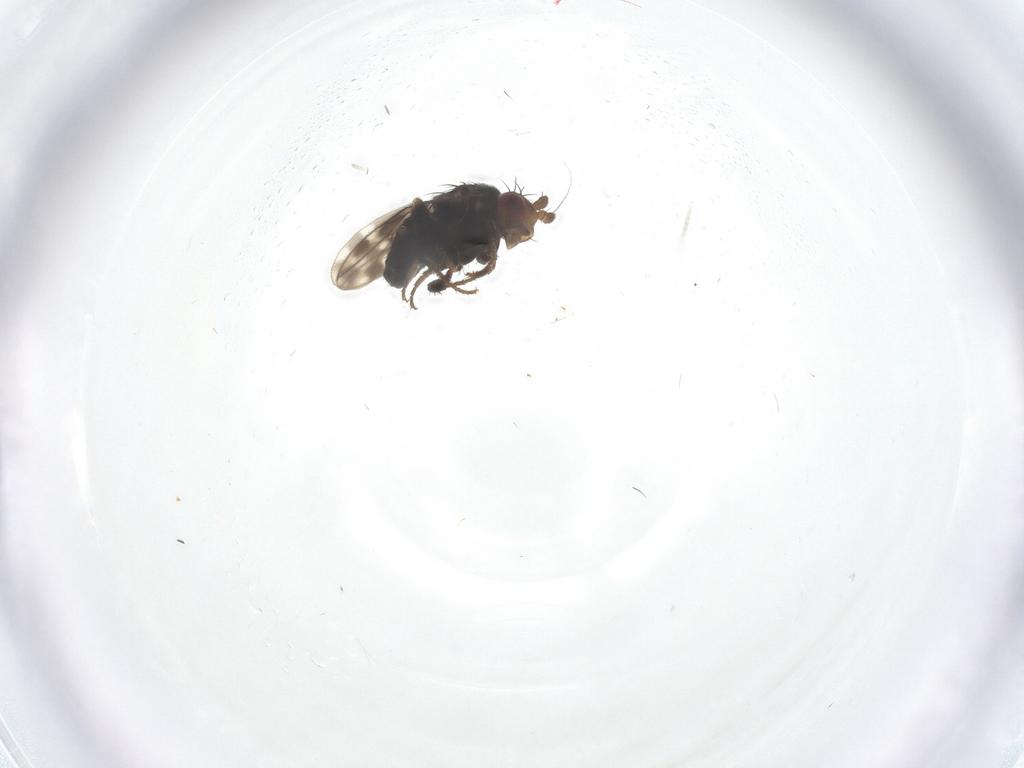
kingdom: Animalia
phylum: Arthropoda
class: Insecta
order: Diptera
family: Sphaeroceridae
